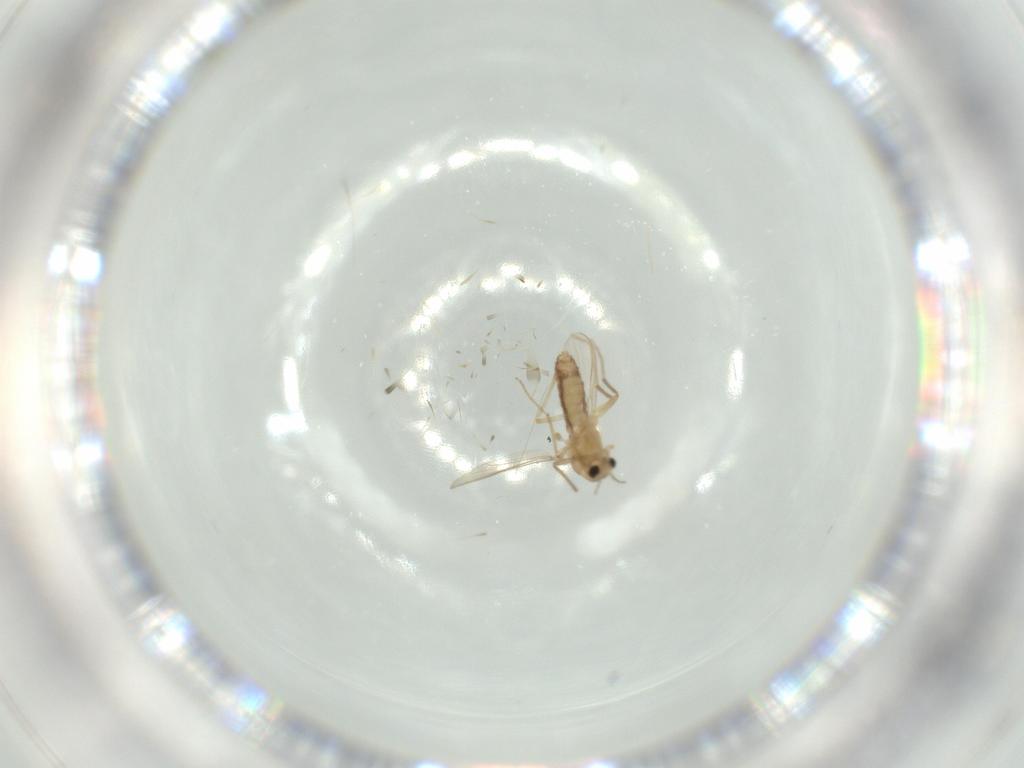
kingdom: Animalia
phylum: Arthropoda
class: Insecta
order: Diptera
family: Chironomidae
